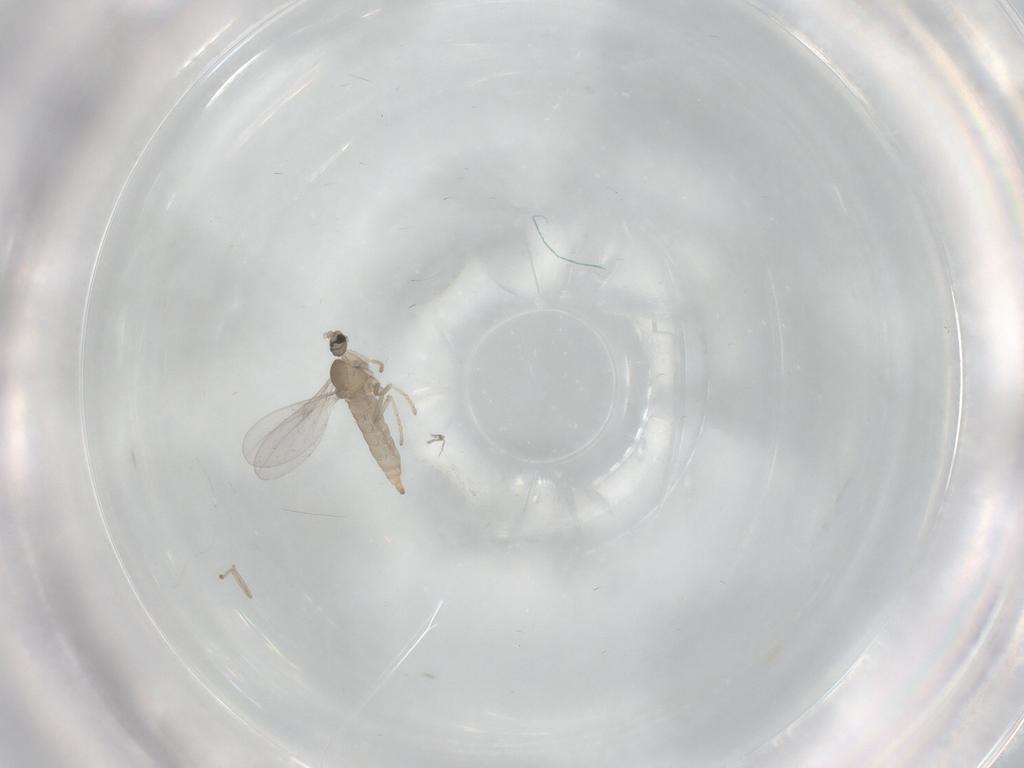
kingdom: Animalia
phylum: Arthropoda
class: Insecta
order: Diptera
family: Cecidomyiidae
